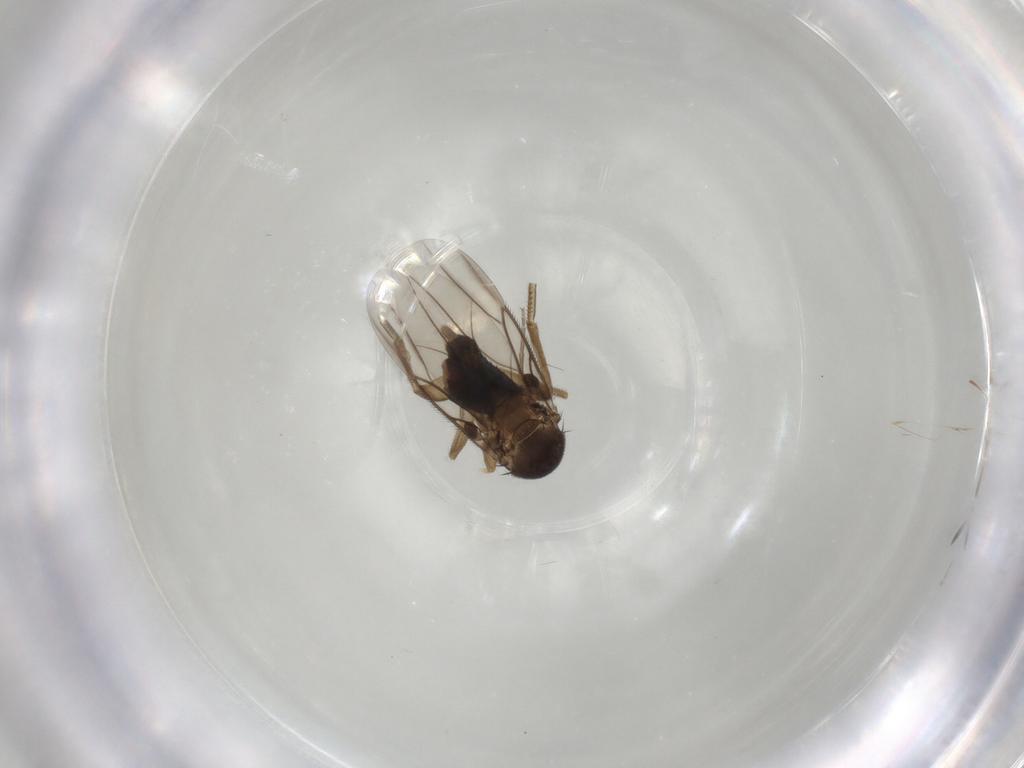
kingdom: Animalia
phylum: Arthropoda
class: Insecta
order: Diptera
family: Phoridae
